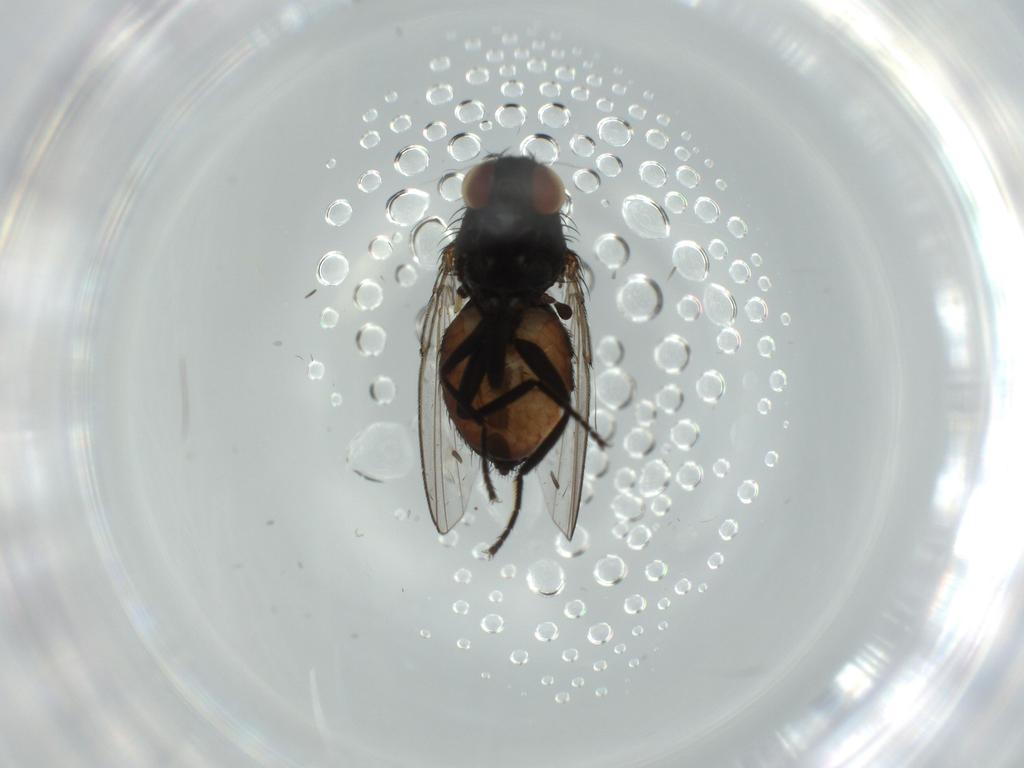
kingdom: Animalia
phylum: Arthropoda
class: Insecta
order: Diptera
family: Milichiidae
